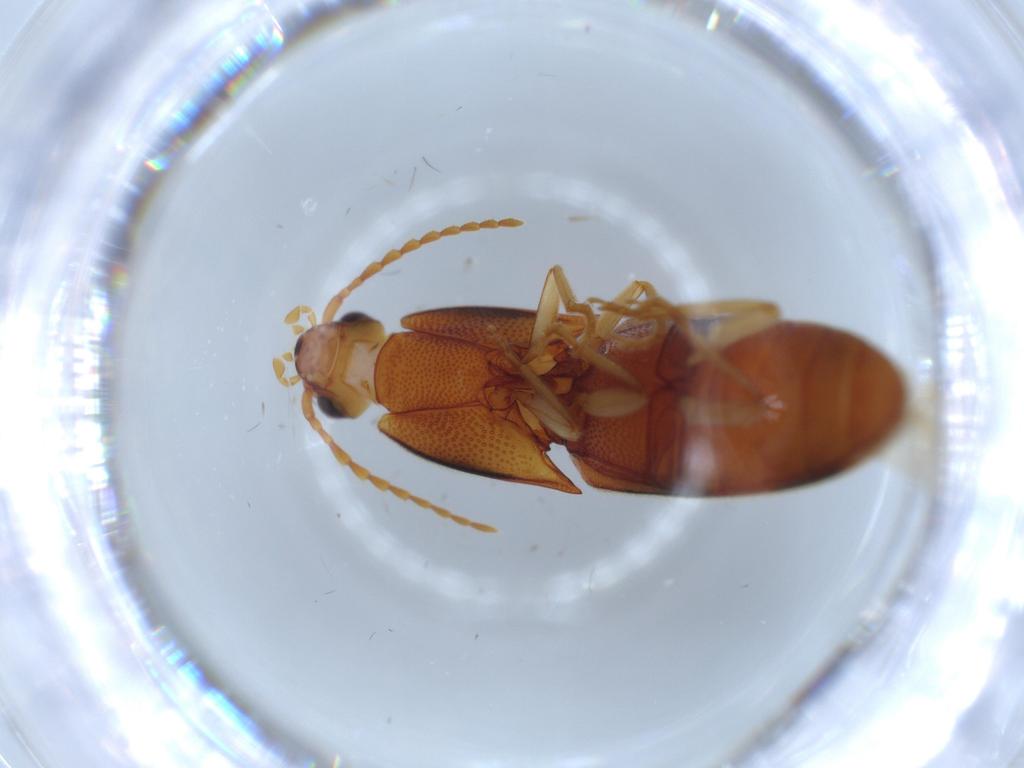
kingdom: Animalia
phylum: Arthropoda
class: Insecta
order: Coleoptera
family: Elateridae
